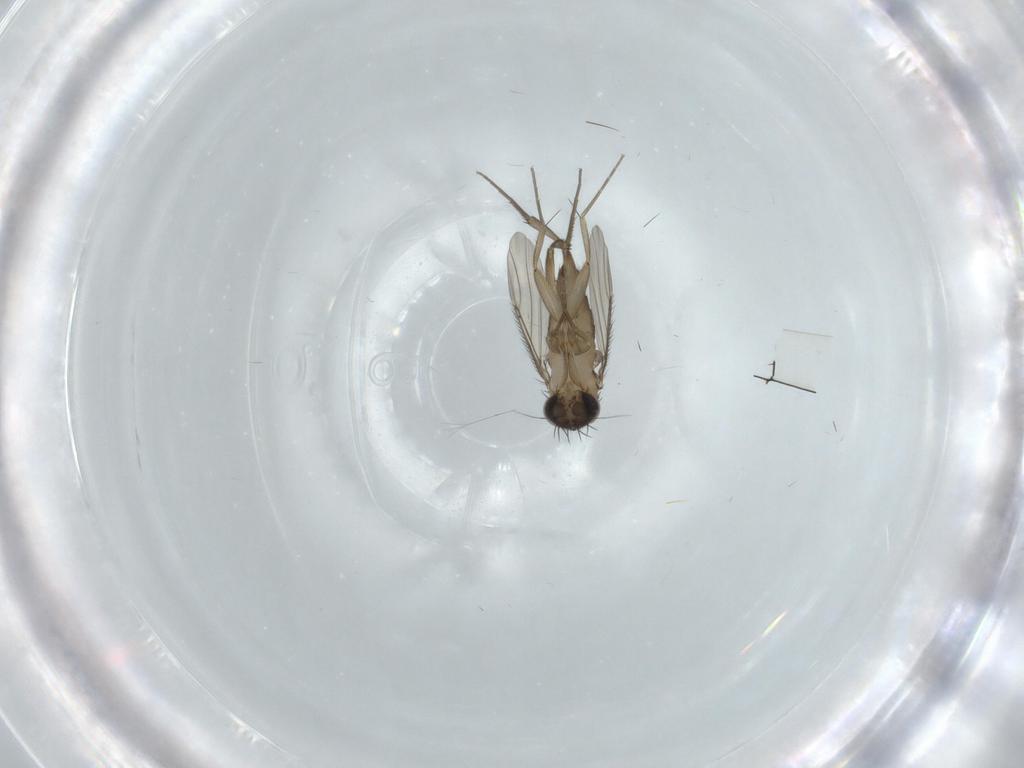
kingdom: Animalia
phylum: Arthropoda
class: Insecta
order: Diptera
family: Phoridae
